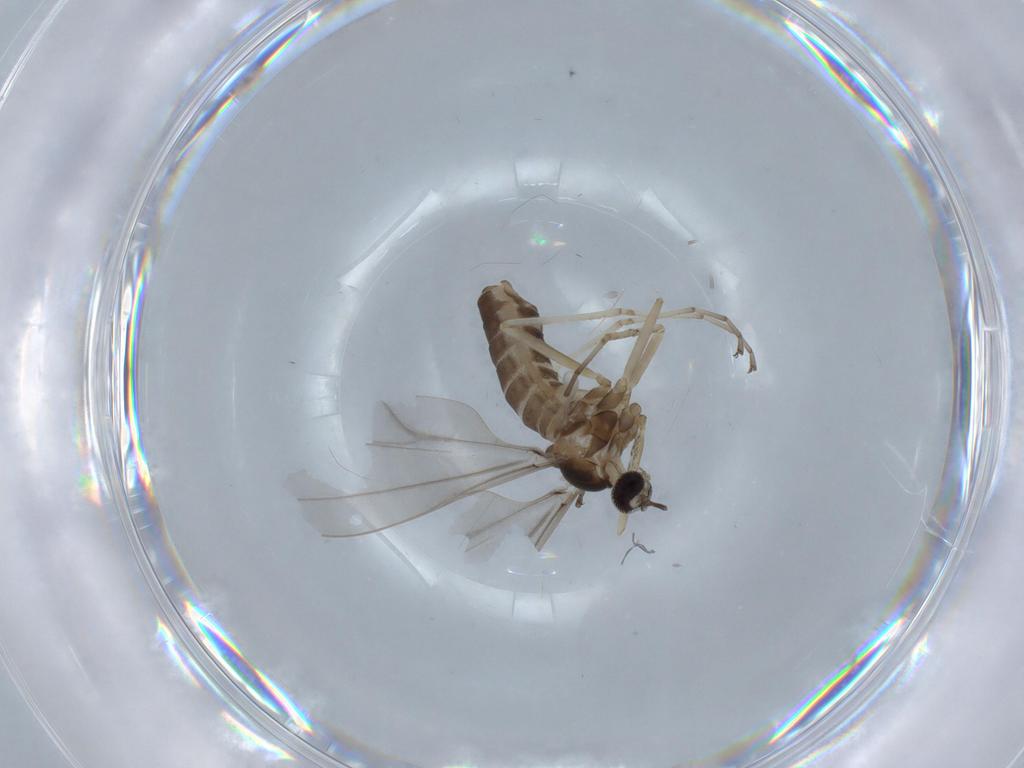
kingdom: Animalia
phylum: Arthropoda
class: Insecta
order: Diptera
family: Cecidomyiidae
